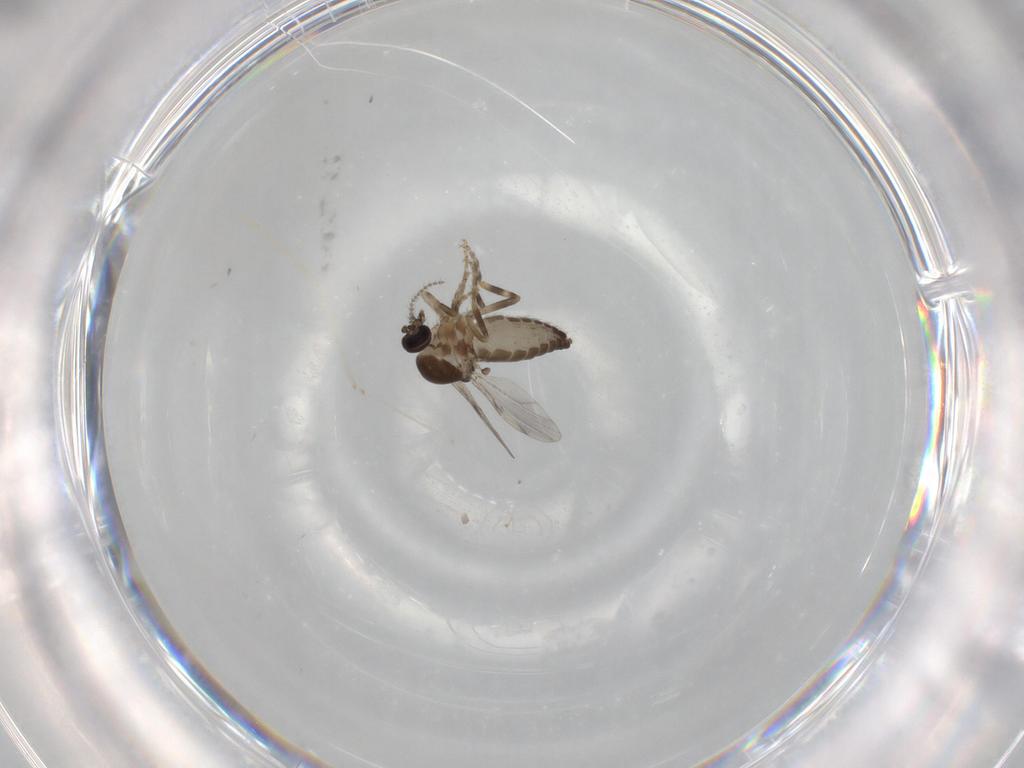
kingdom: Animalia
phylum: Arthropoda
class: Insecta
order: Diptera
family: Ceratopogonidae
